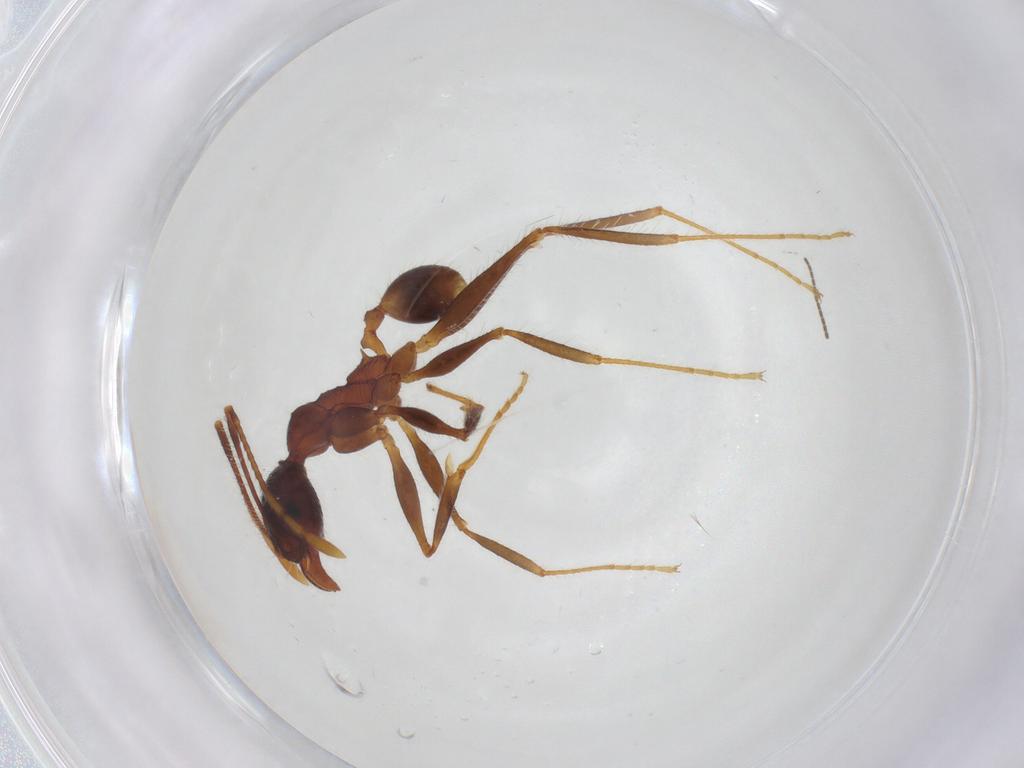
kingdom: Animalia
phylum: Arthropoda
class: Insecta
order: Hymenoptera
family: Formicidae
